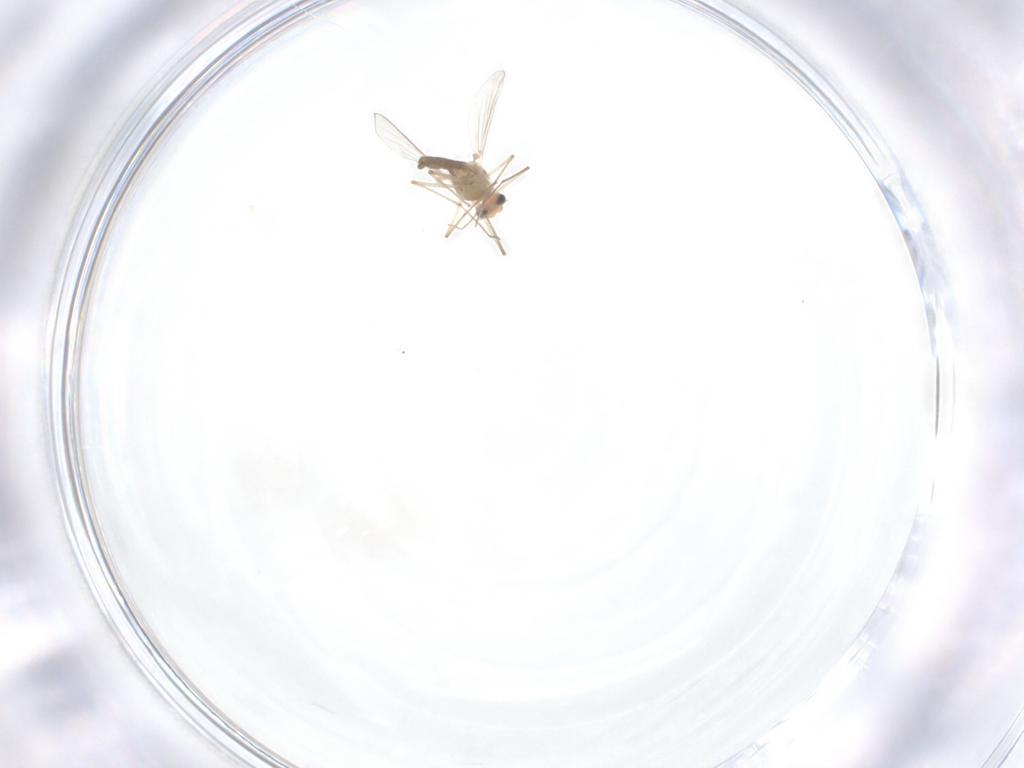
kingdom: Animalia
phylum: Arthropoda
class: Insecta
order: Diptera
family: Chironomidae
